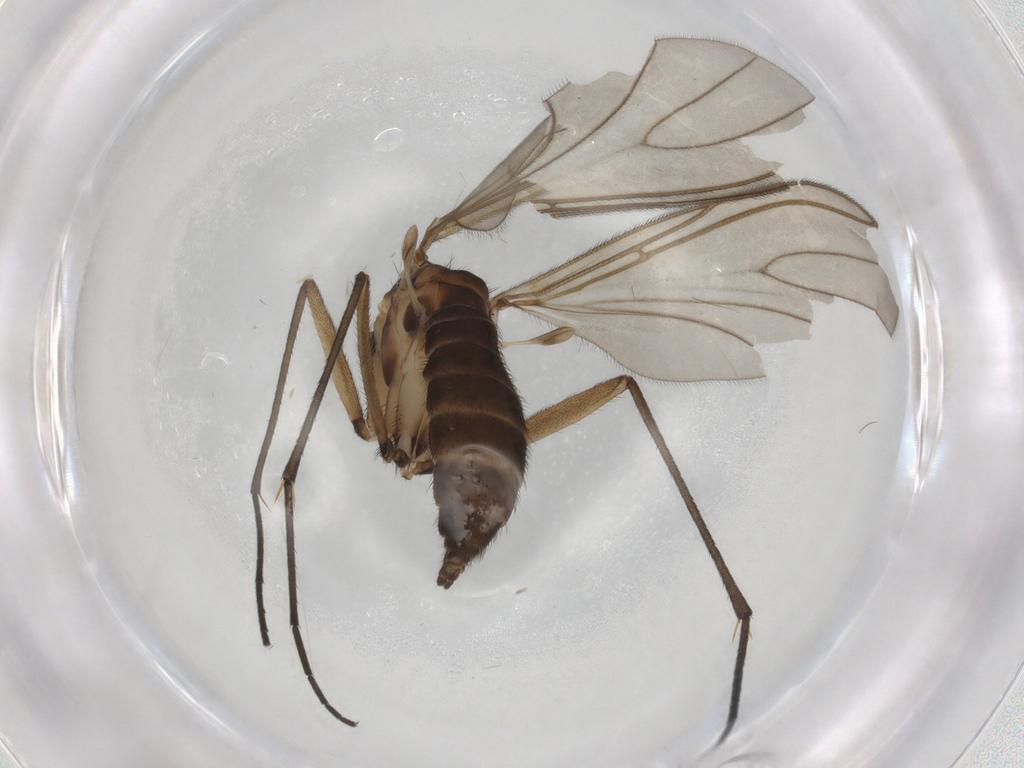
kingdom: Animalia
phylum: Arthropoda
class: Insecta
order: Diptera
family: Sciaridae
